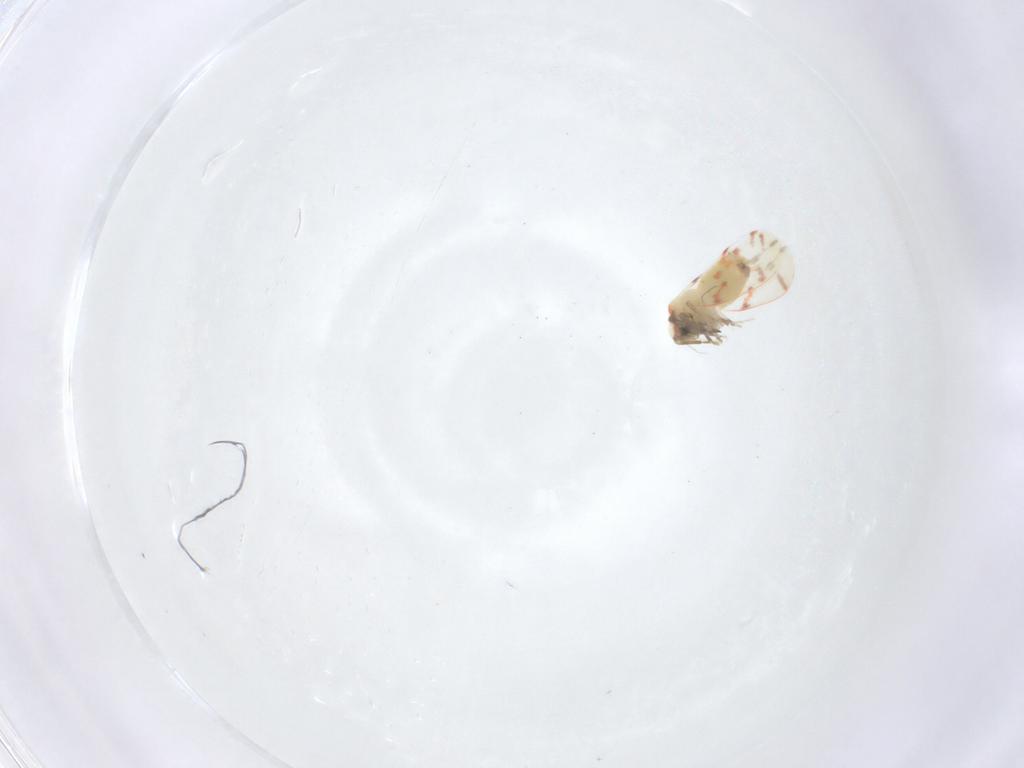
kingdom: Animalia
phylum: Arthropoda
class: Insecta
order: Hemiptera
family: Aleyrodidae
